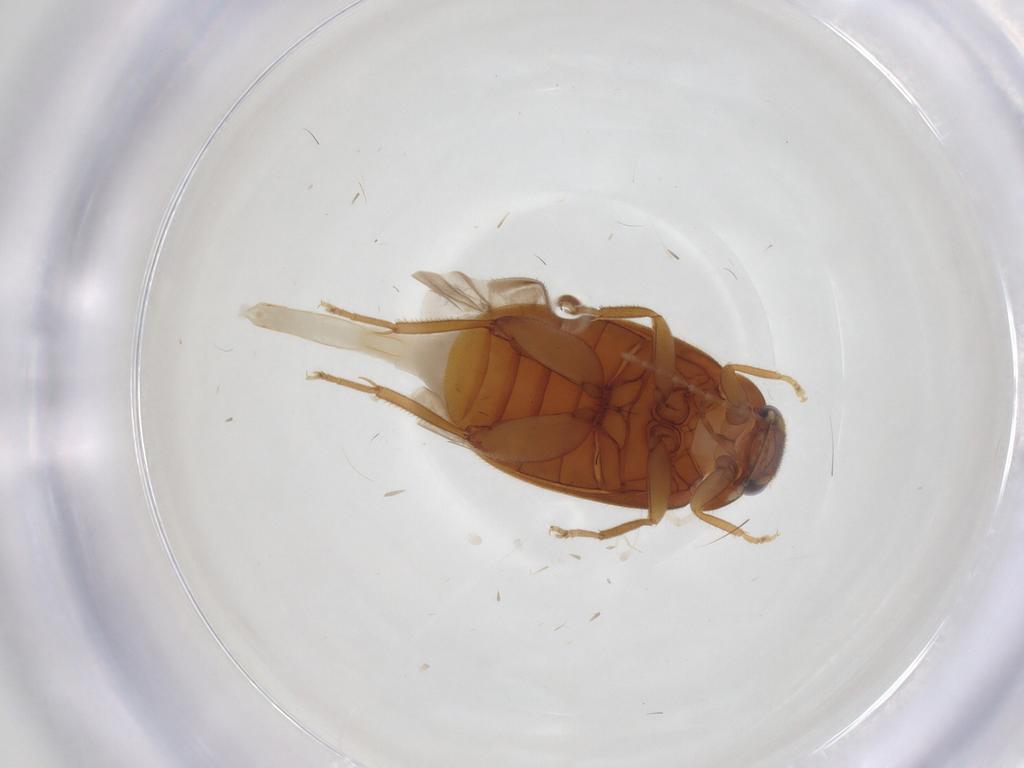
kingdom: Animalia
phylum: Arthropoda
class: Insecta
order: Coleoptera
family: Scirtidae
